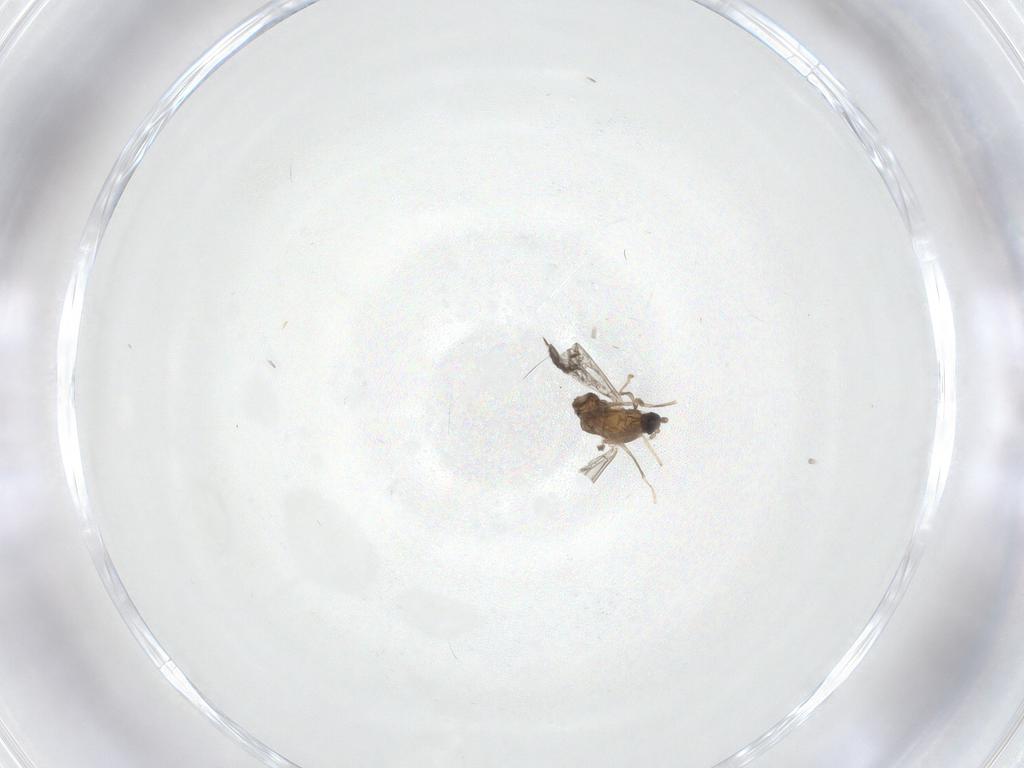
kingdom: Animalia
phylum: Arthropoda
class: Insecta
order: Diptera
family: Cecidomyiidae
